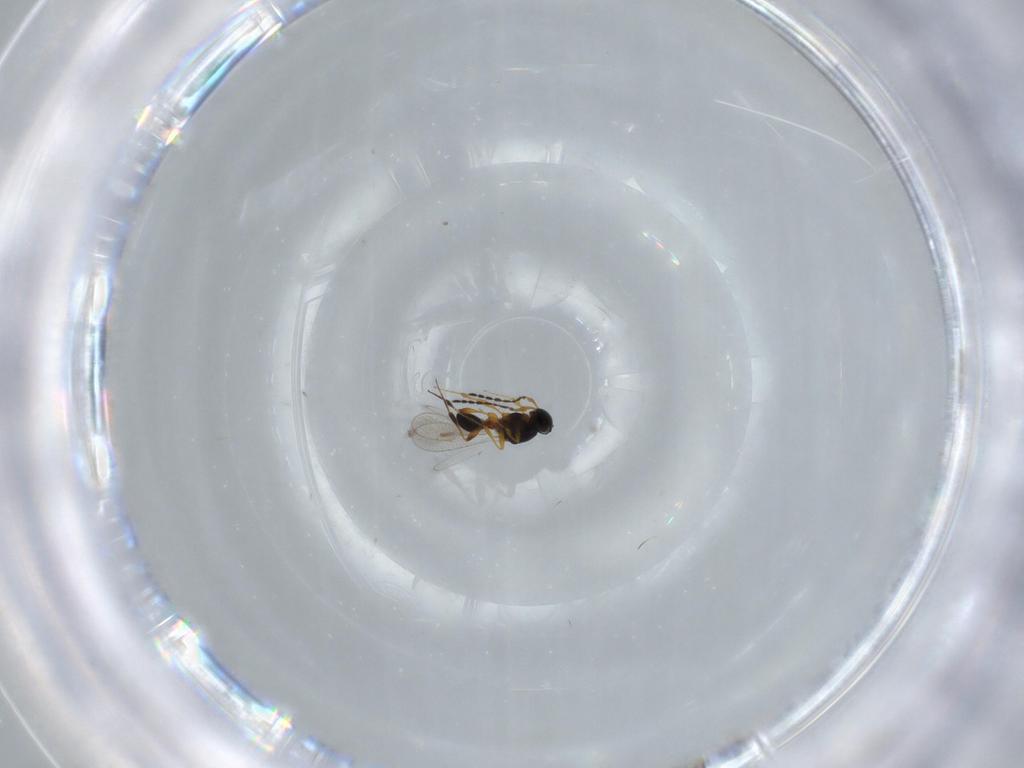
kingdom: Animalia
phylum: Arthropoda
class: Insecta
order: Hymenoptera
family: Platygastridae
